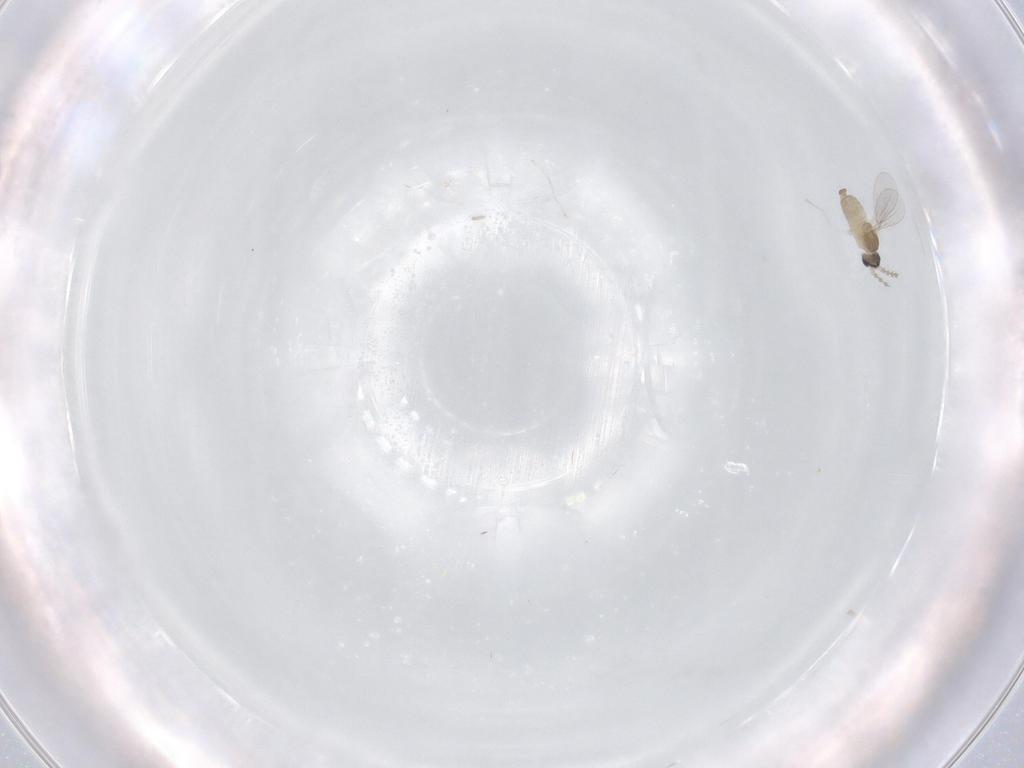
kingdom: Animalia
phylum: Arthropoda
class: Insecta
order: Diptera
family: Cecidomyiidae
